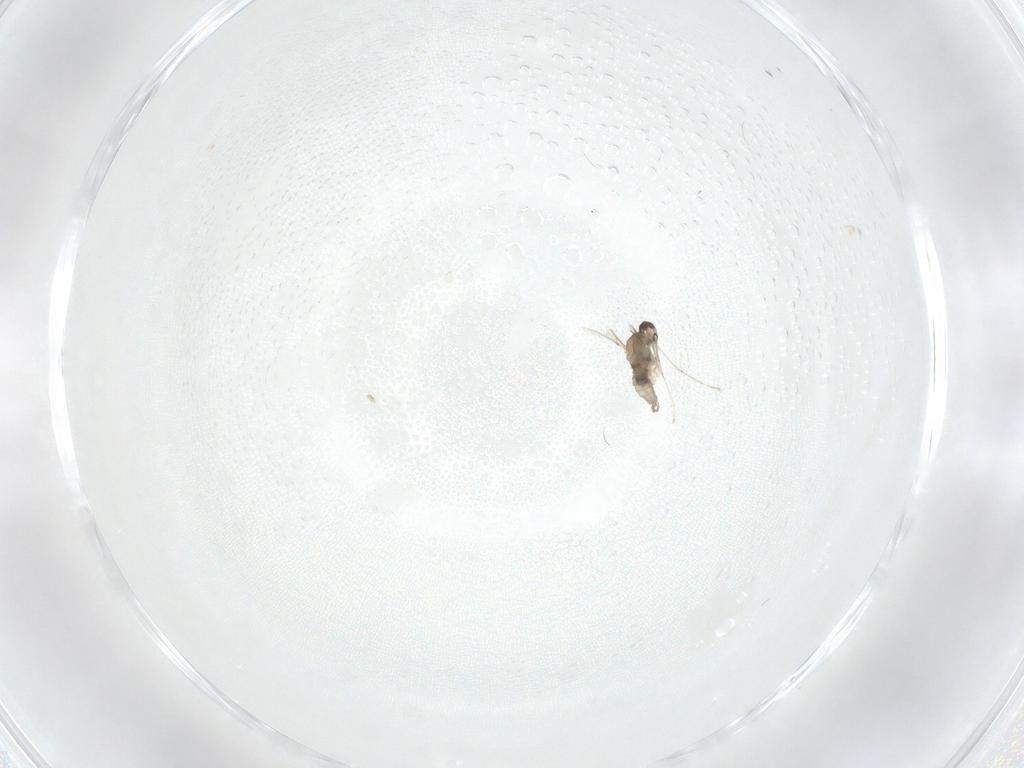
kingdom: Animalia
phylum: Arthropoda
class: Insecta
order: Diptera
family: Cecidomyiidae
